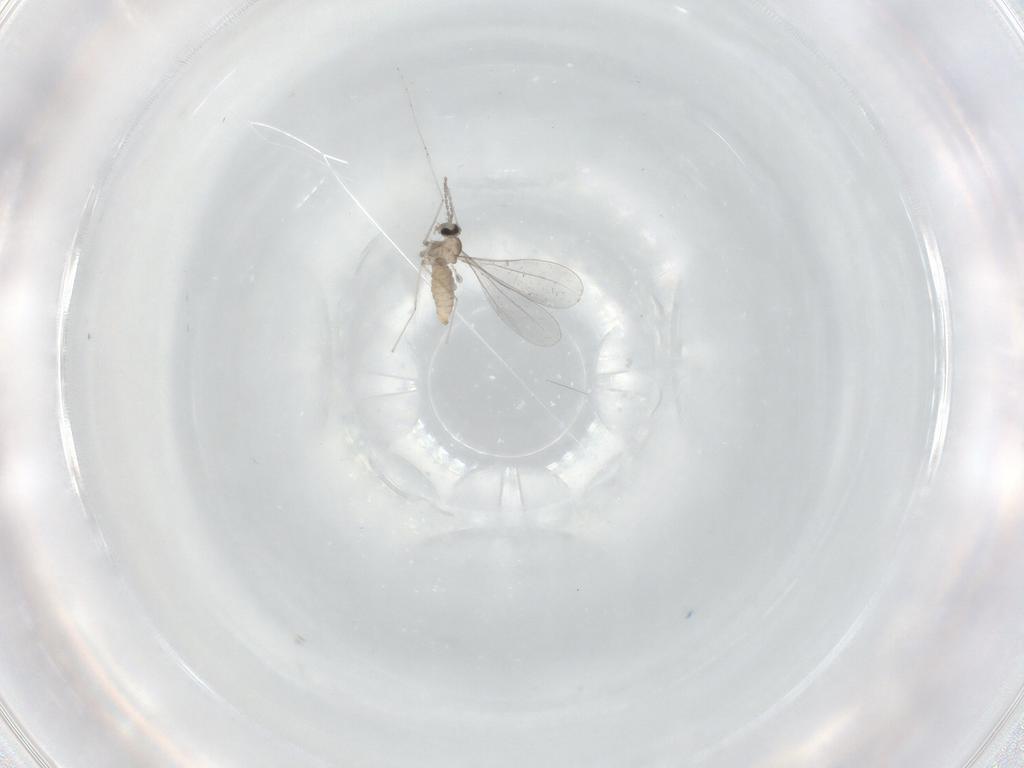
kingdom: Animalia
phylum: Arthropoda
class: Insecta
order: Diptera
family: Cecidomyiidae
